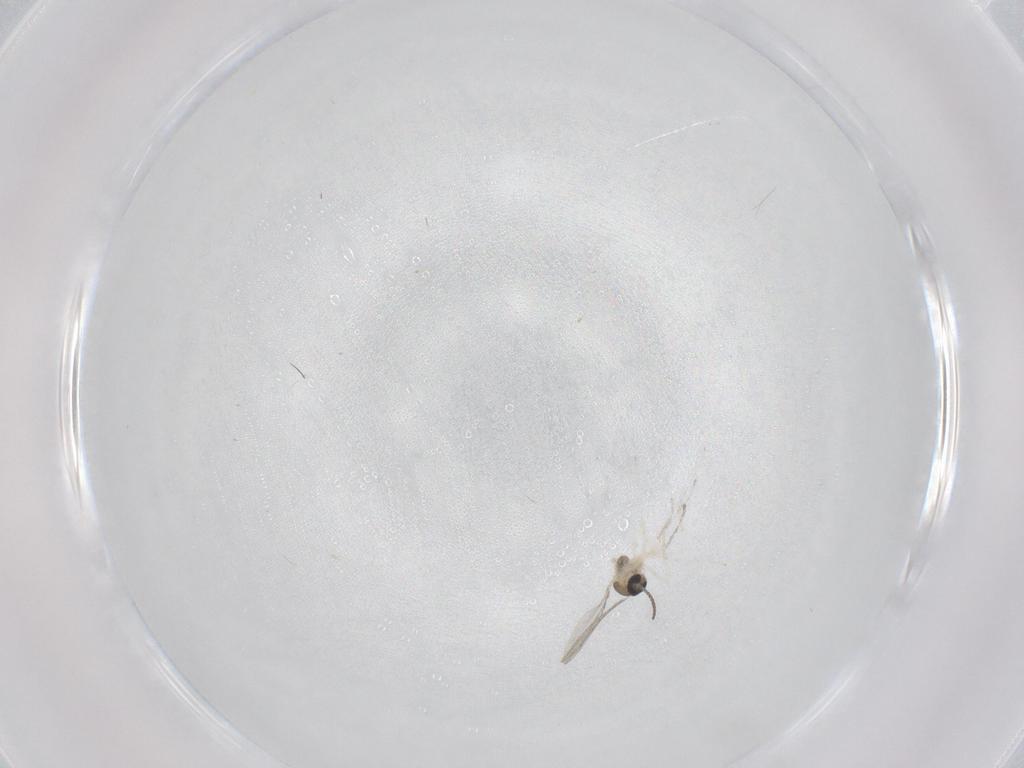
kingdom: Animalia
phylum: Arthropoda
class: Insecta
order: Diptera
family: Cecidomyiidae
